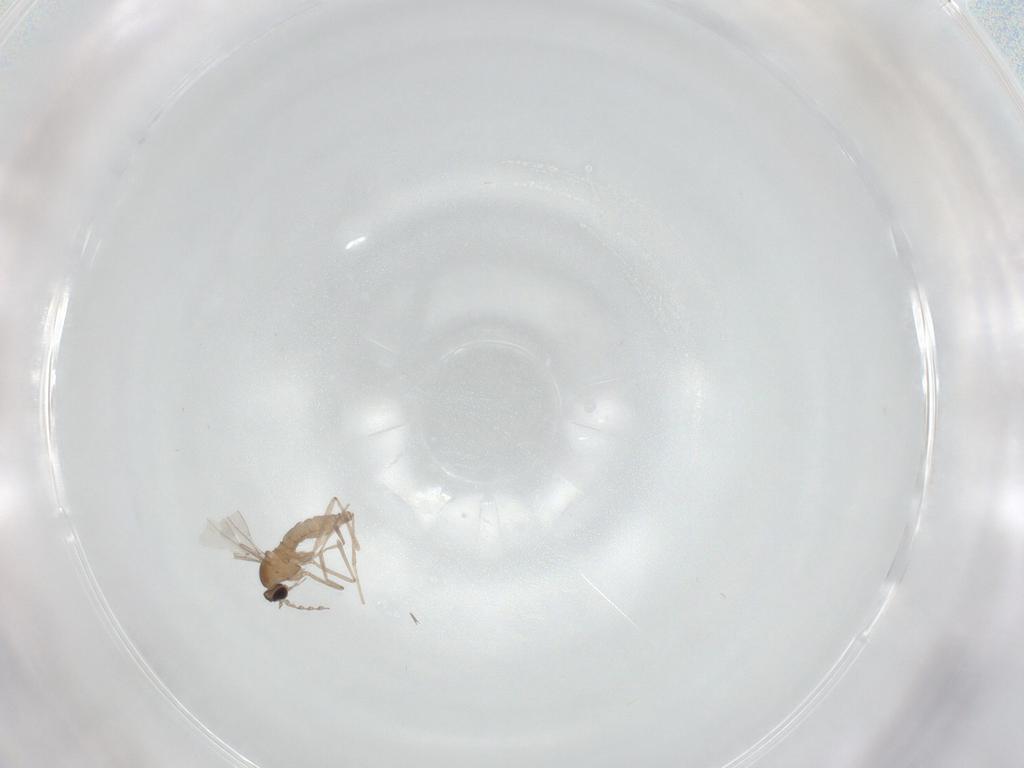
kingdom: Animalia
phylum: Arthropoda
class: Insecta
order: Diptera
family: Cecidomyiidae
